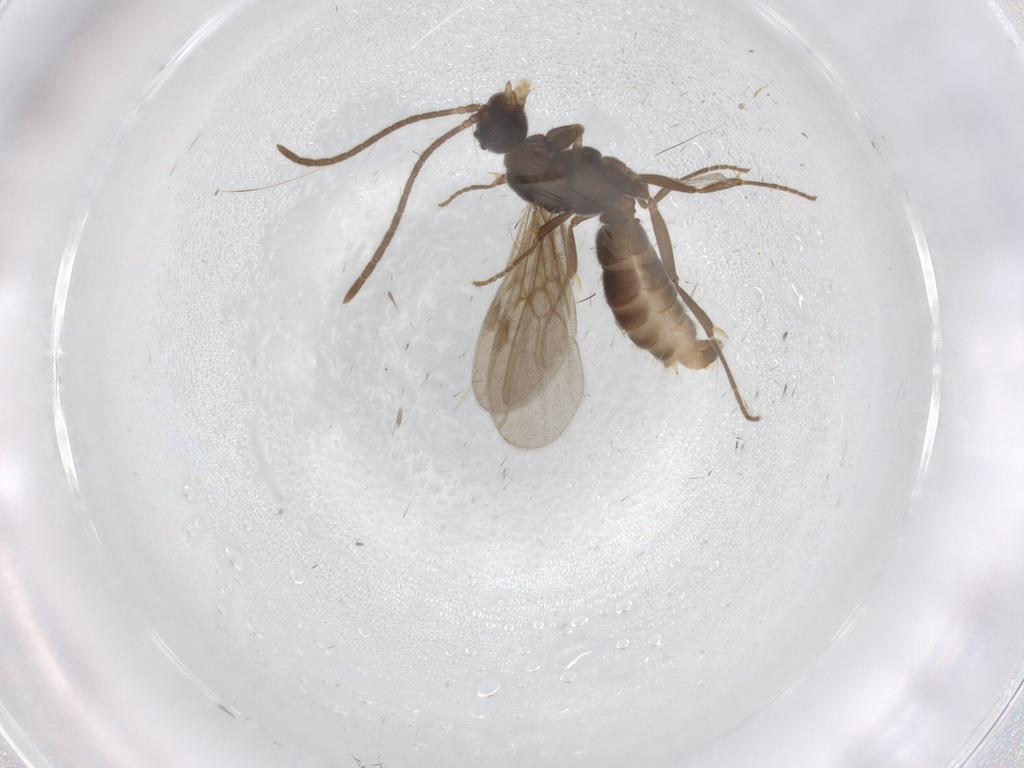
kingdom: Animalia
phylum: Arthropoda
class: Insecta
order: Hymenoptera
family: Formicidae
